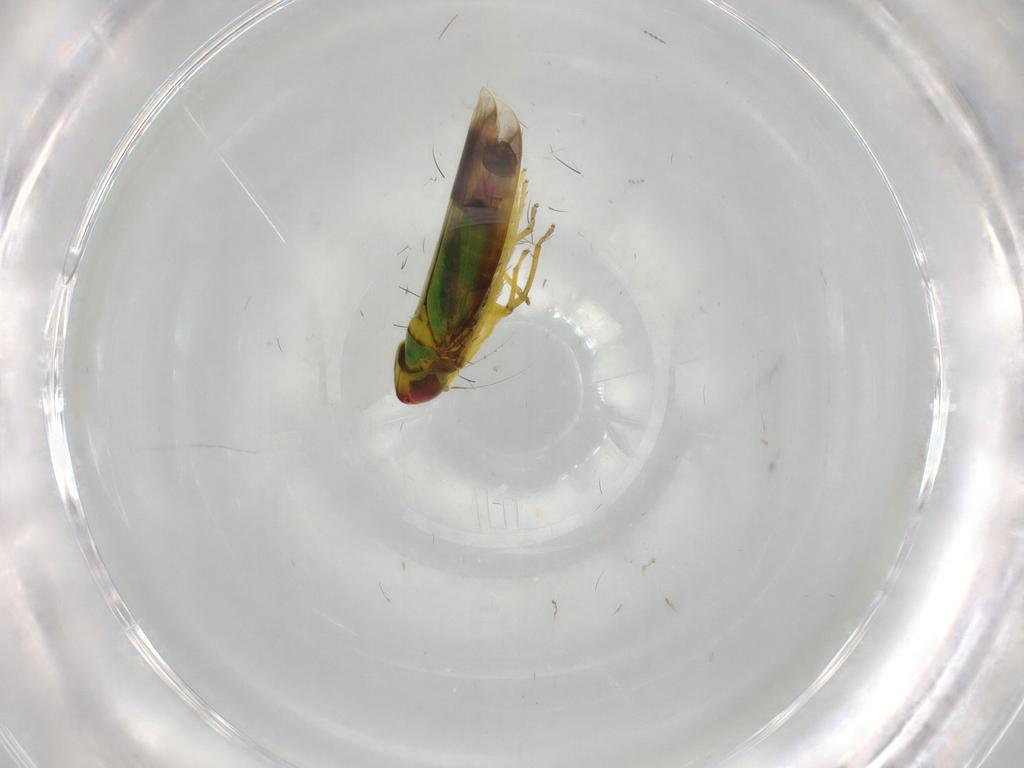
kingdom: Animalia
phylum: Arthropoda
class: Insecta
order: Hemiptera
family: Cicadellidae
